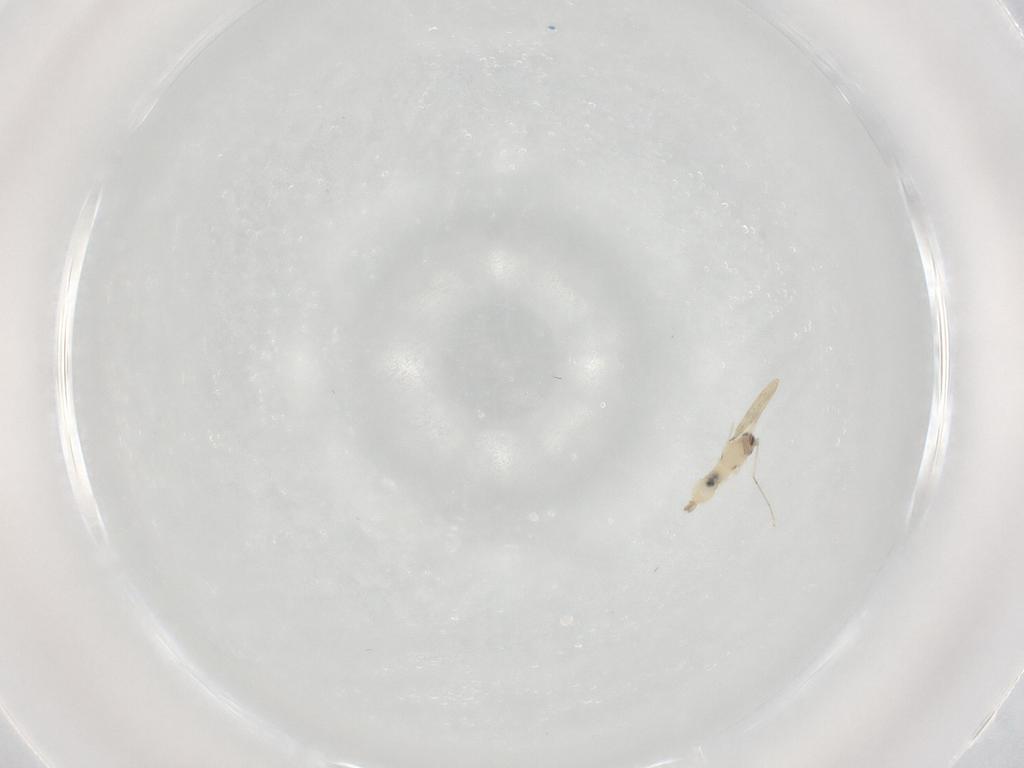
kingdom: Animalia
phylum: Arthropoda
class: Insecta
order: Diptera
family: Cecidomyiidae
